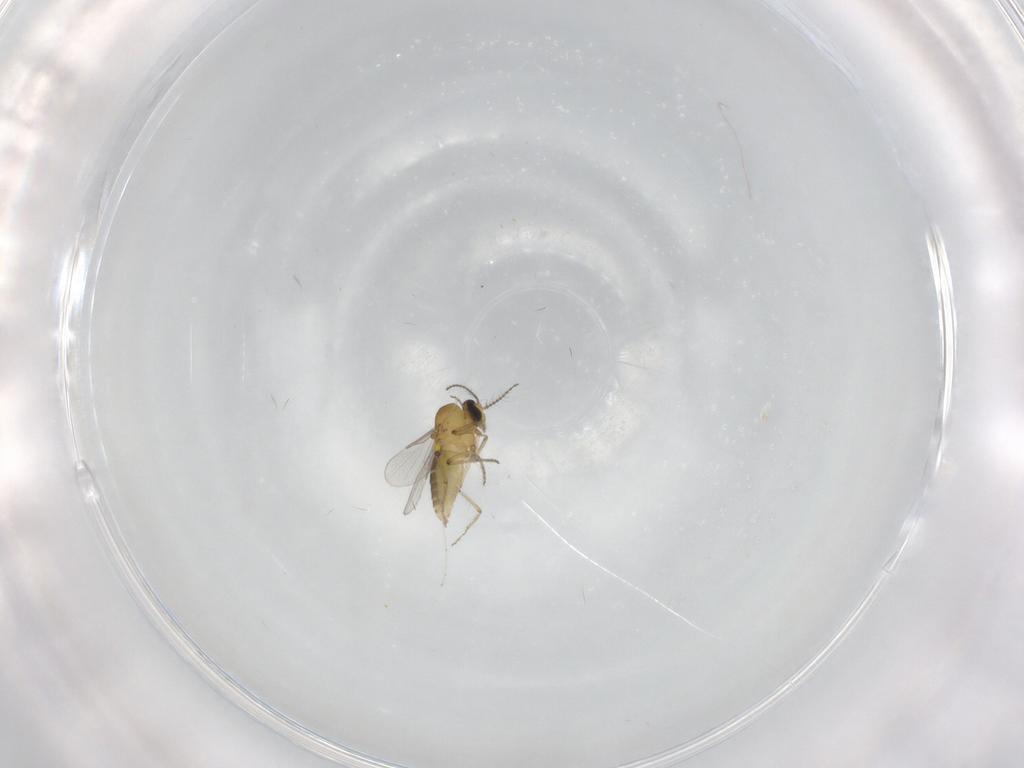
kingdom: Animalia
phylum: Arthropoda
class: Insecta
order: Diptera
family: Ceratopogonidae
